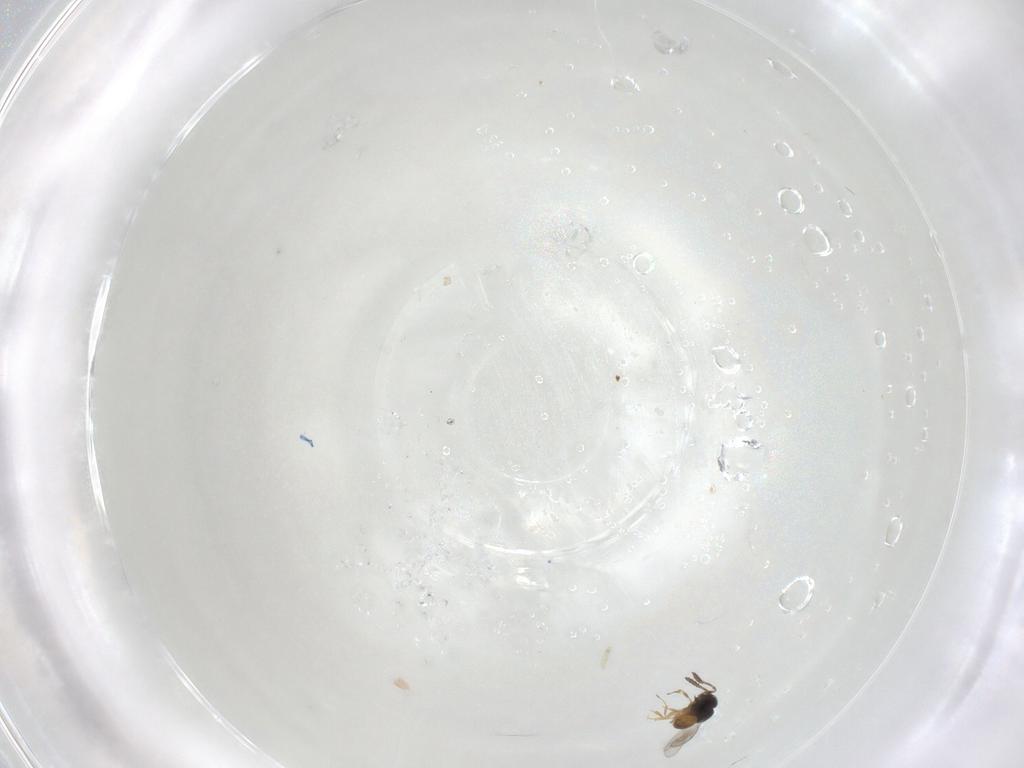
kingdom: Animalia
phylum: Arthropoda
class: Insecta
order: Hymenoptera
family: Scelionidae
